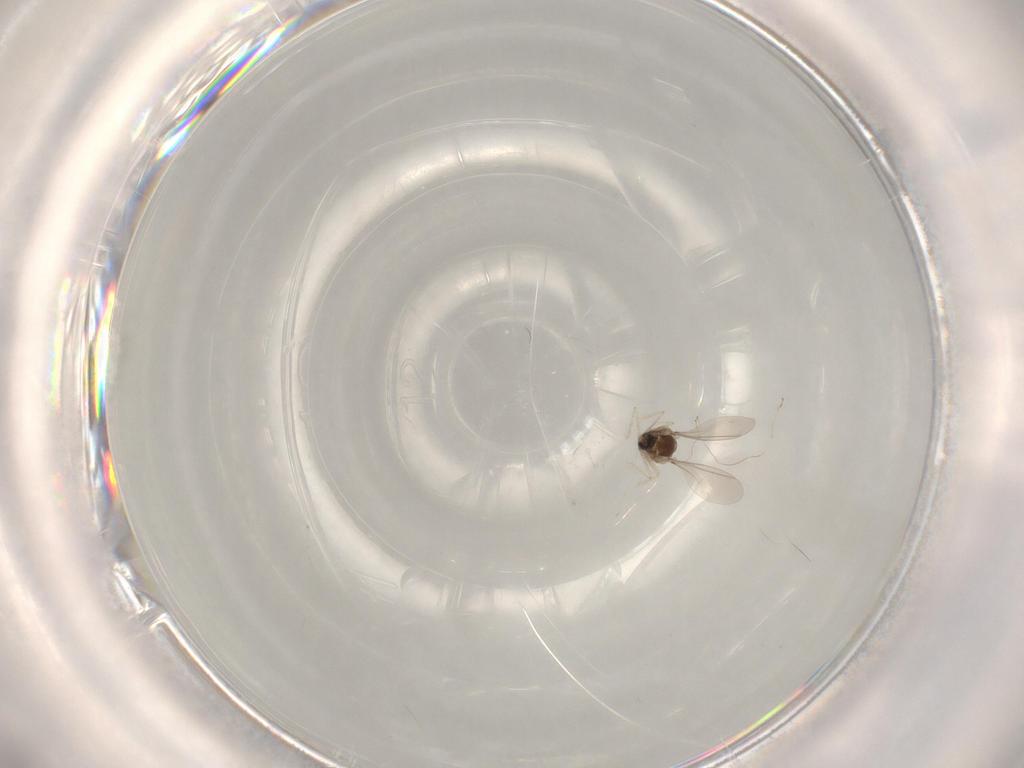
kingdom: Animalia
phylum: Arthropoda
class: Insecta
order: Diptera
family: Cecidomyiidae
